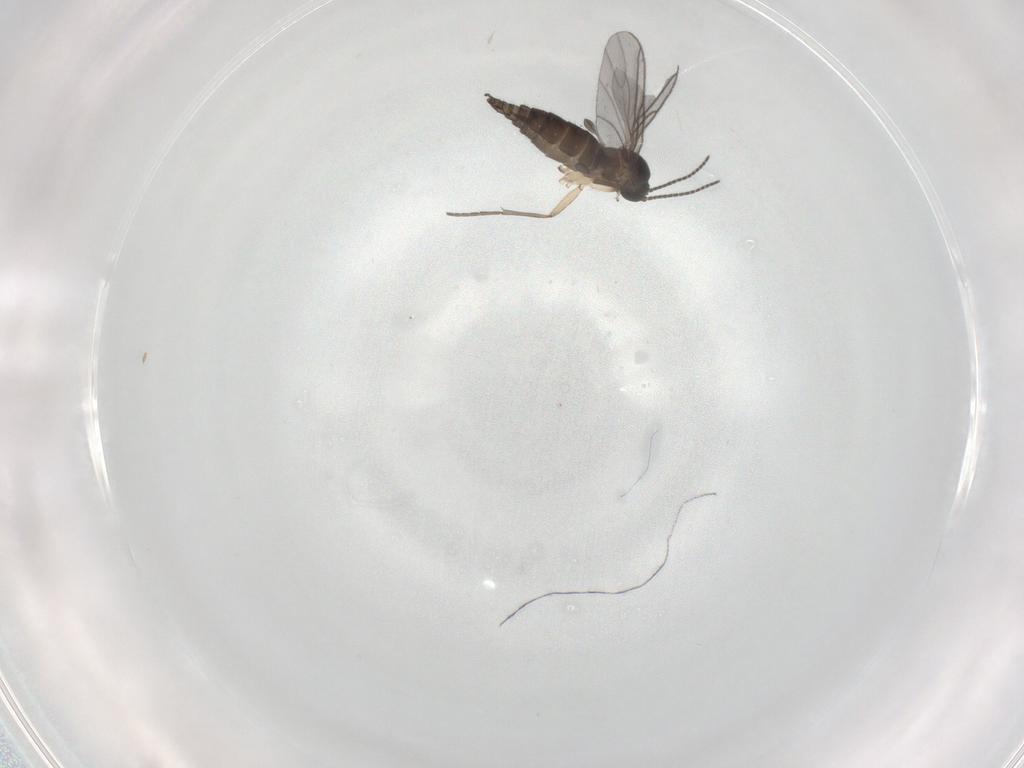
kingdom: Animalia
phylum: Arthropoda
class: Insecta
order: Diptera
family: Sciaridae
